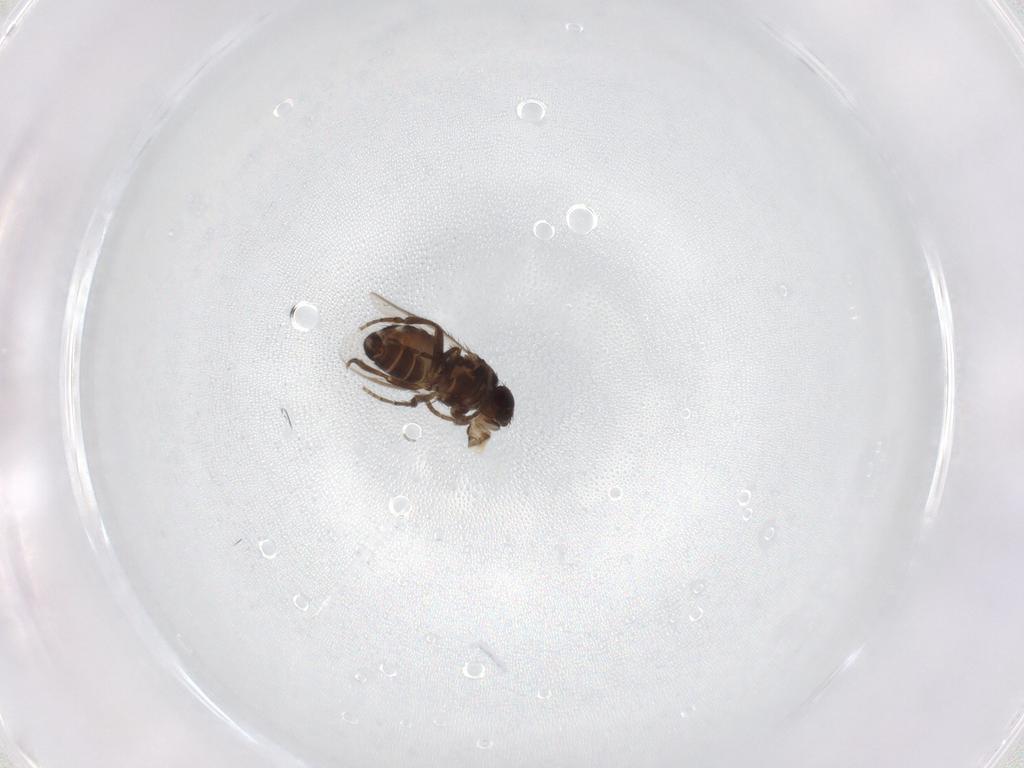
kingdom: Animalia
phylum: Arthropoda
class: Insecta
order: Diptera
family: Sphaeroceridae
